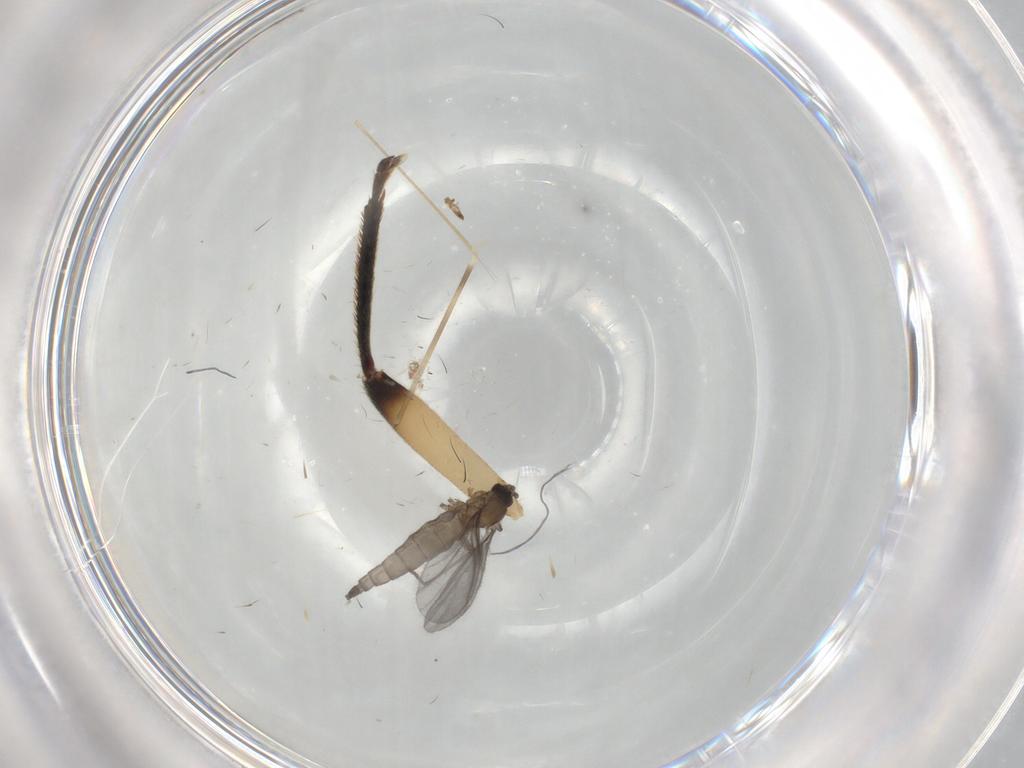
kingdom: Animalia
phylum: Arthropoda
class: Insecta
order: Diptera
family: Sciaridae
